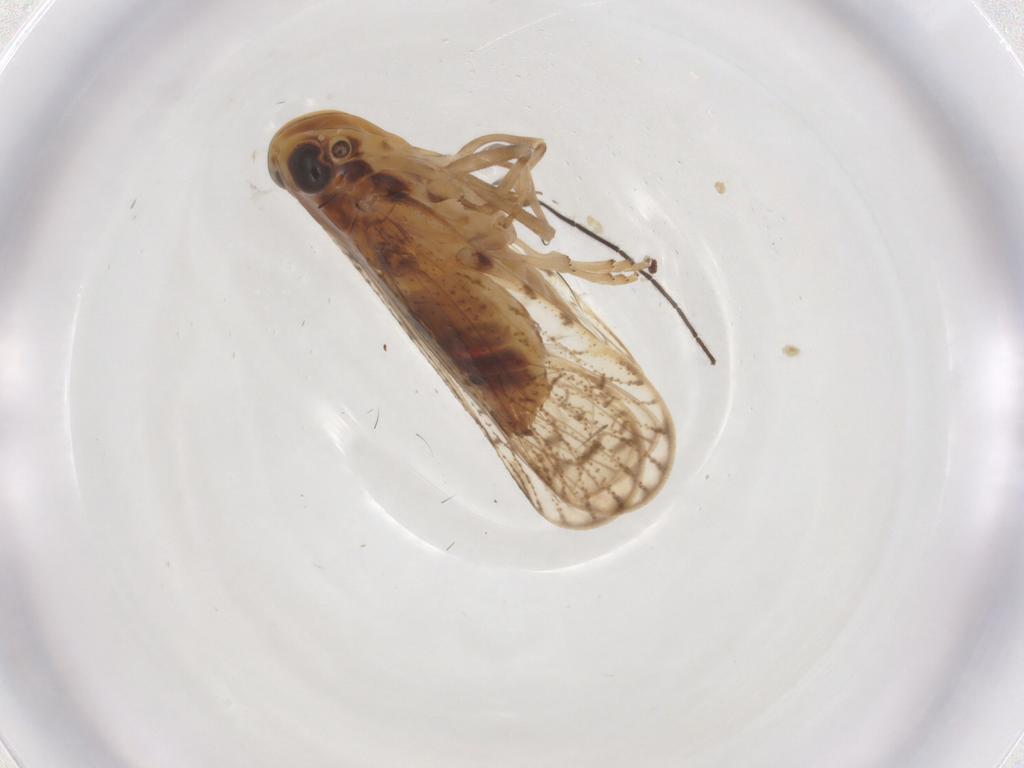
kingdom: Animalia
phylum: Arthropoda
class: Insecta
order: Psocodea
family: Caeciliusidae
